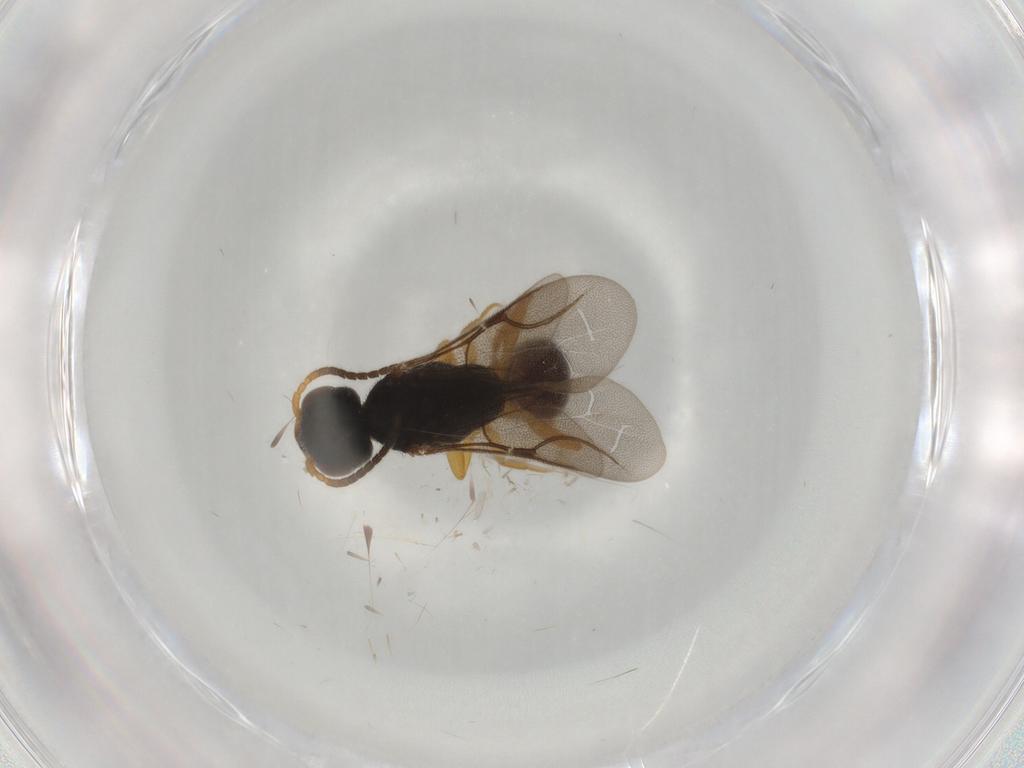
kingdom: Animalia
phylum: Arthropoda
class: Insecta
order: Hymenoptera
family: Bethylidae
